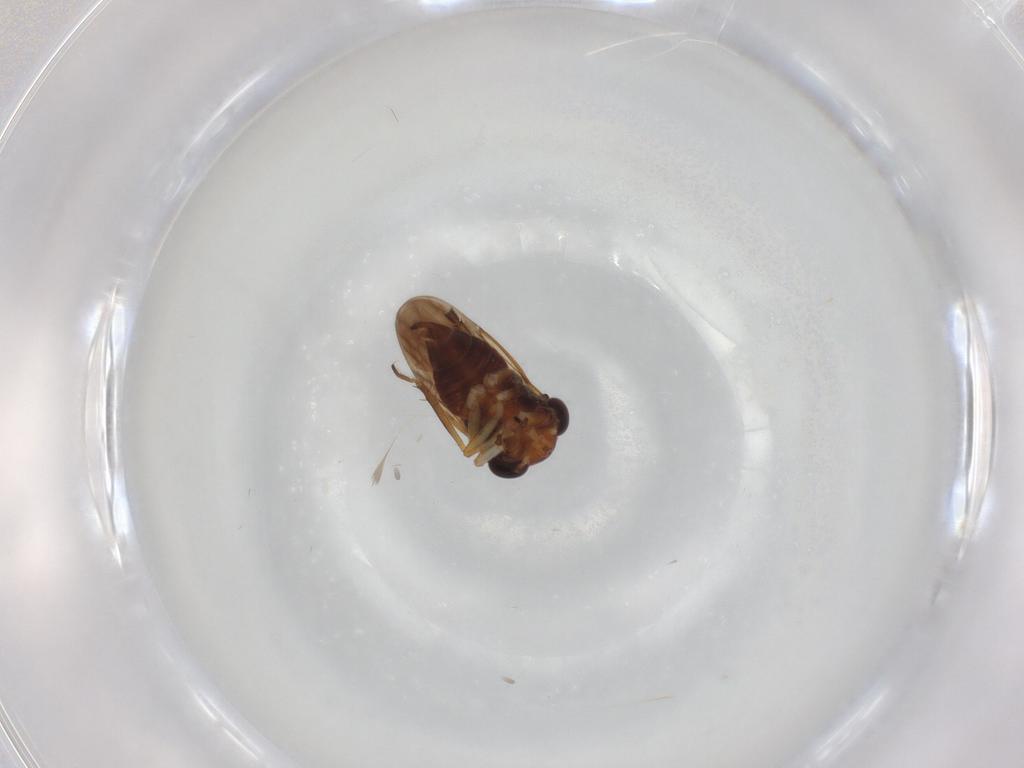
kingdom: Animalia
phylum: Arthropoda
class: Insecta
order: Hemiptera
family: Schizopteridae
